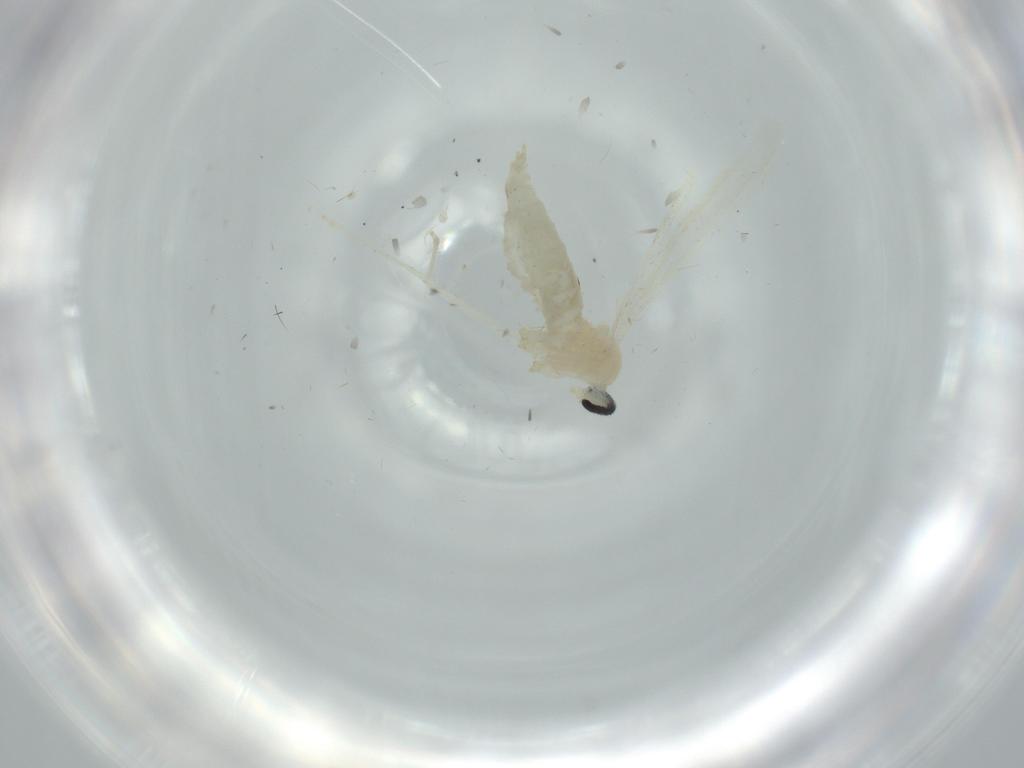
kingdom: Animalia
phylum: Arthropoda
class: Insecta
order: Diptera
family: Cecidomyiidae
